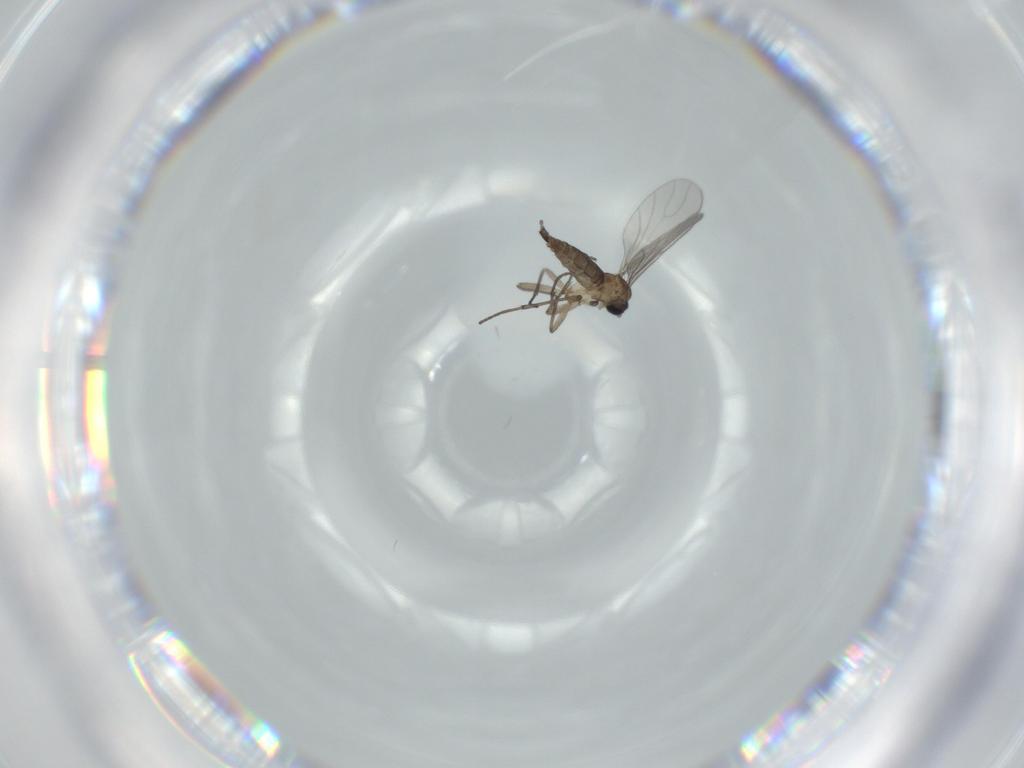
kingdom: Animalia
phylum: Arthropoda
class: Insecta
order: Diptera
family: Sciaridae
